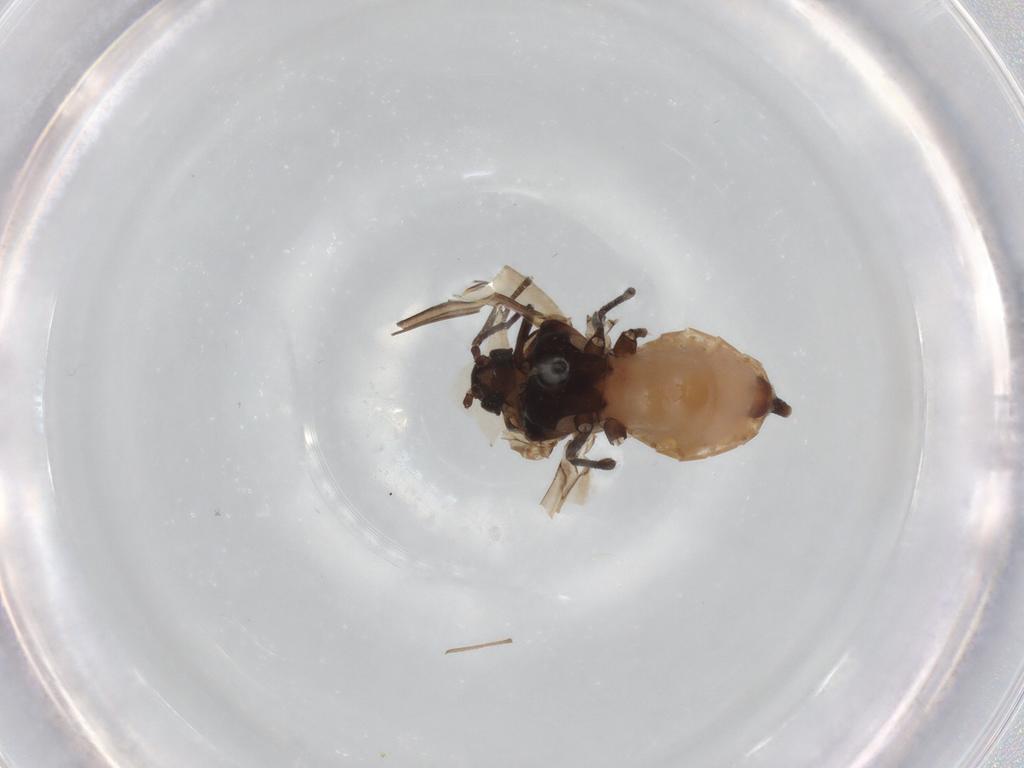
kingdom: Animalia
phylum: Arthropoda
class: Insecta
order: Hemiptera
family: Aphididae
